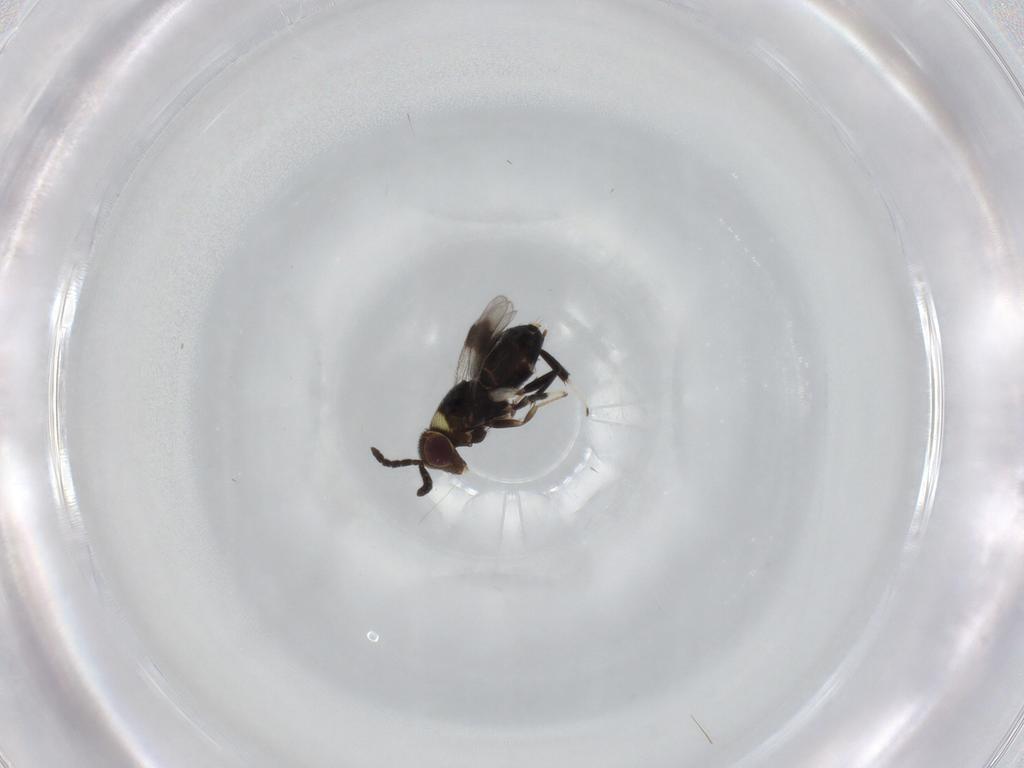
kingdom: Animalia
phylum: Arthropoda
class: Insecta
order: Hymenoptera
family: Aphelinidae
